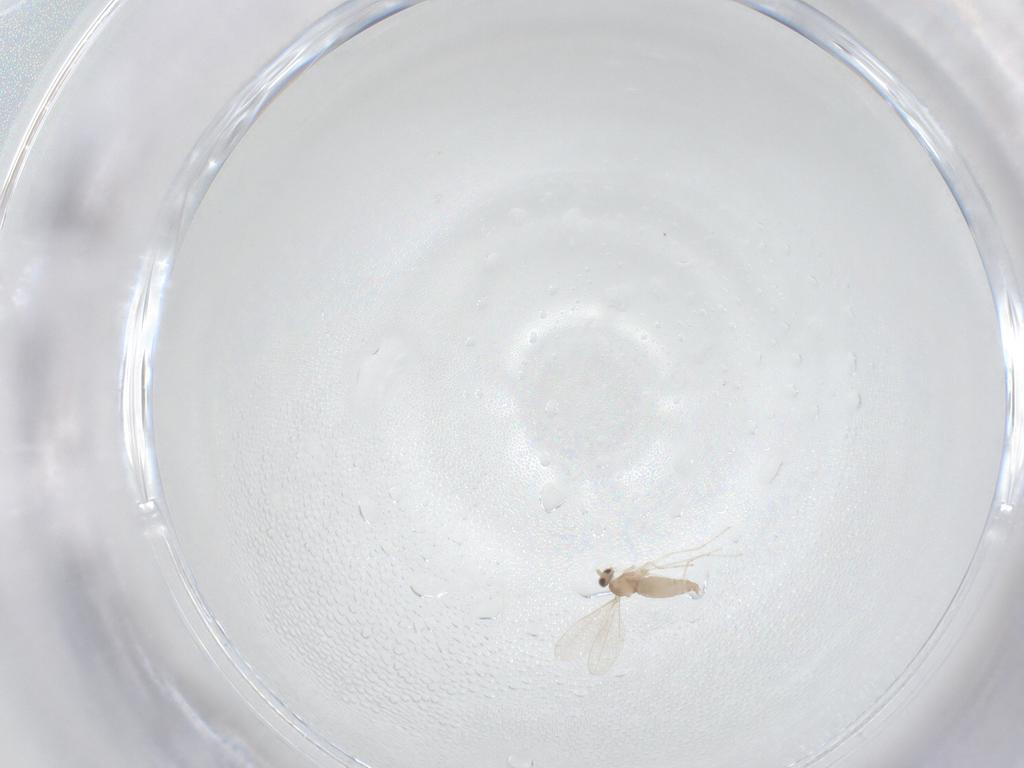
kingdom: Animalia
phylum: Arthropoda
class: Insecta
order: Diptera
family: Cecidomyiidae
